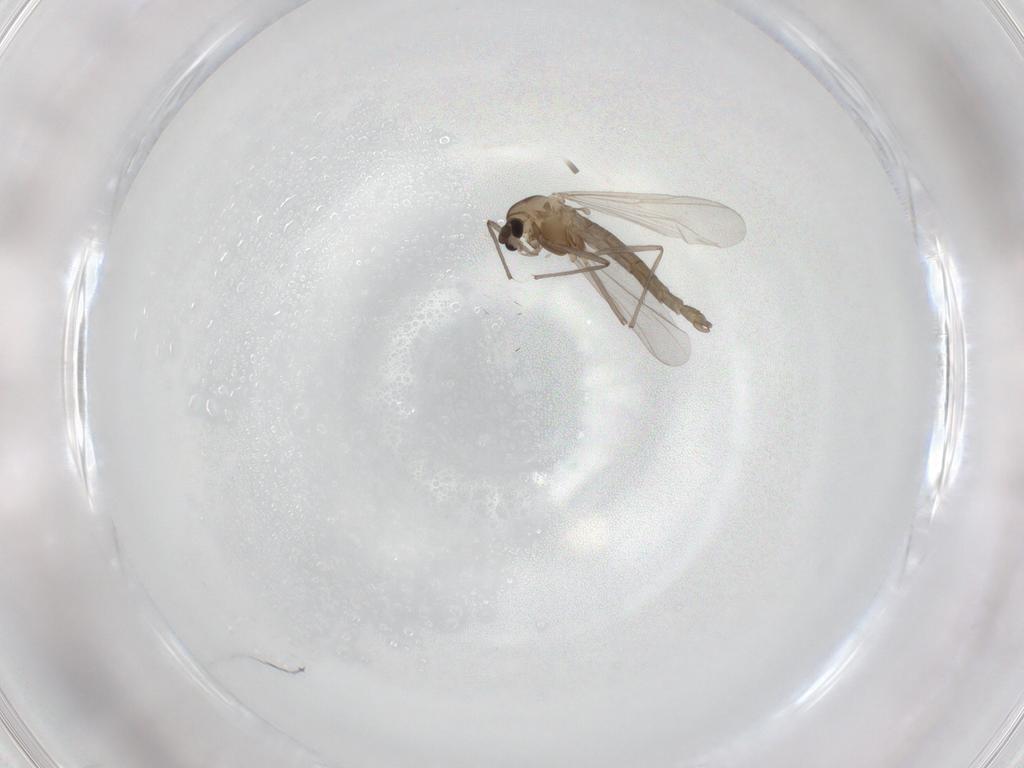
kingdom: Animalia
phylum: Arthropoda
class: Insecta
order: Diptera
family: Chironomidae
